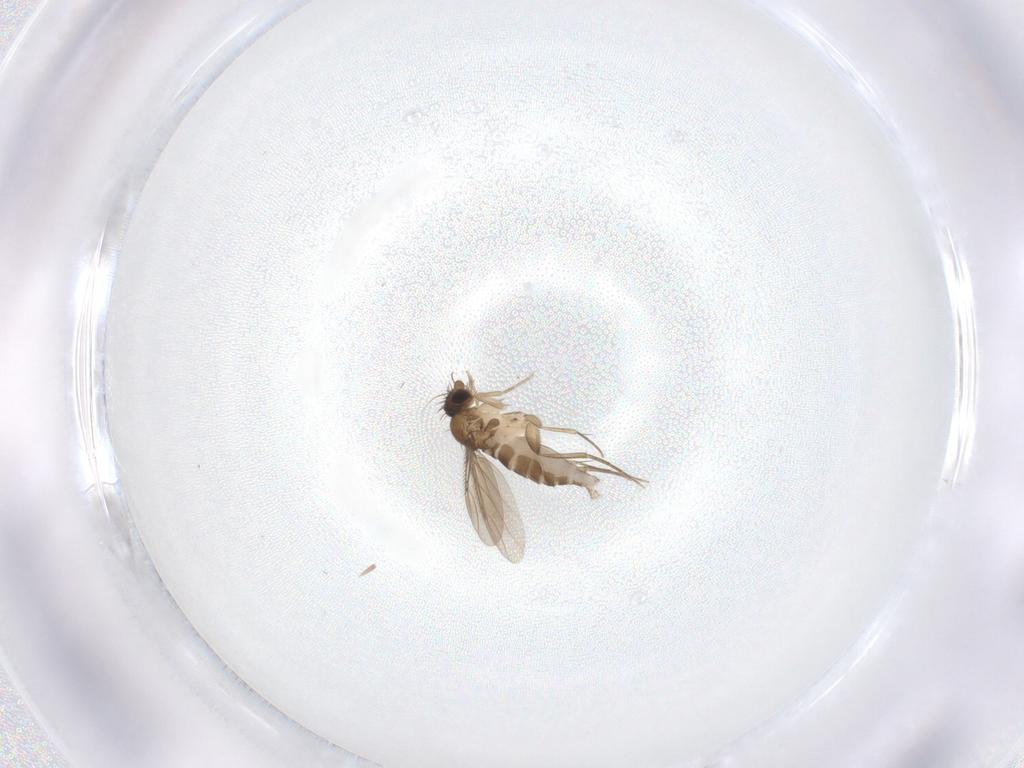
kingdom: Animalia
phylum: Arthropoda
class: Insecta
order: Diptera
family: Phoridae
